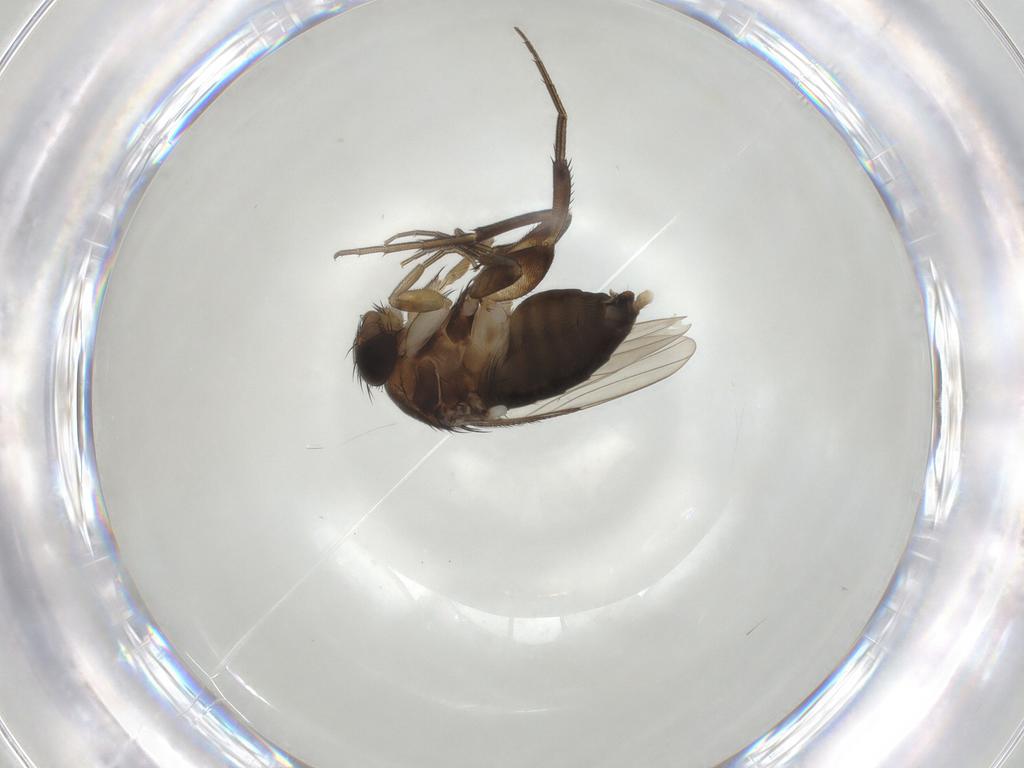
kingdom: Animalia
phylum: Arthropoda
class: Insecta
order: Diptera
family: Phoridae
